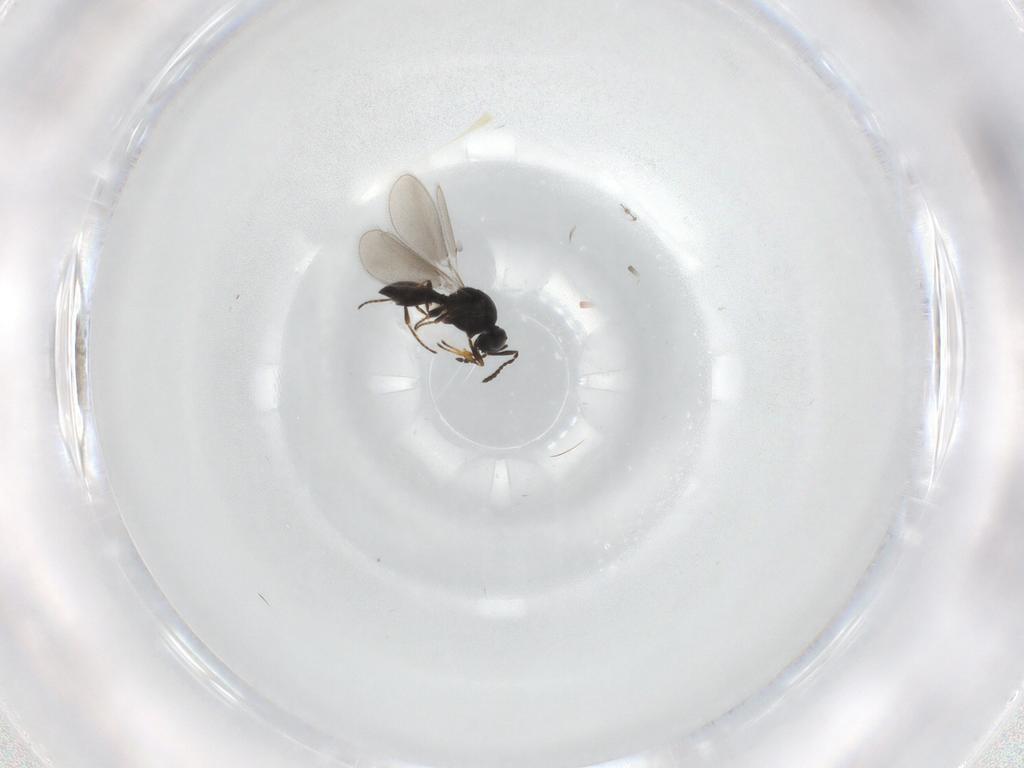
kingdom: Animalia
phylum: Arthropoda
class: Insecta
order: Hymenoptera
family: Platygastridae
